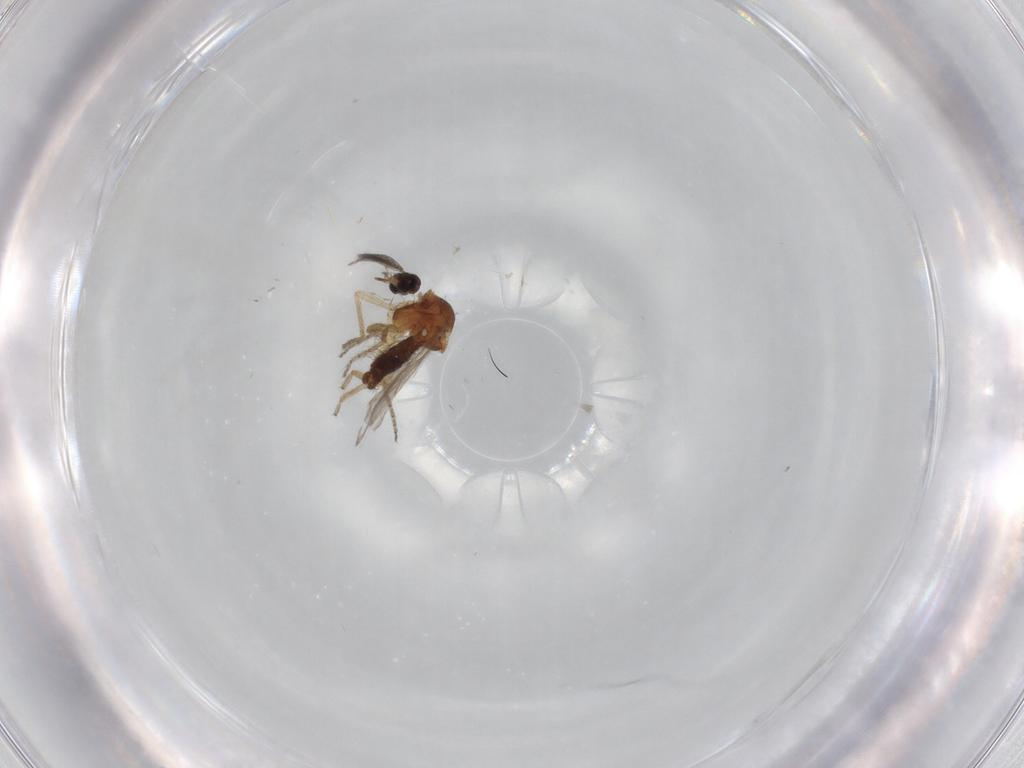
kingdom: Animalia
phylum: Arthropoda
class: Insecta
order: Diptera
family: Ceratopogonidae
